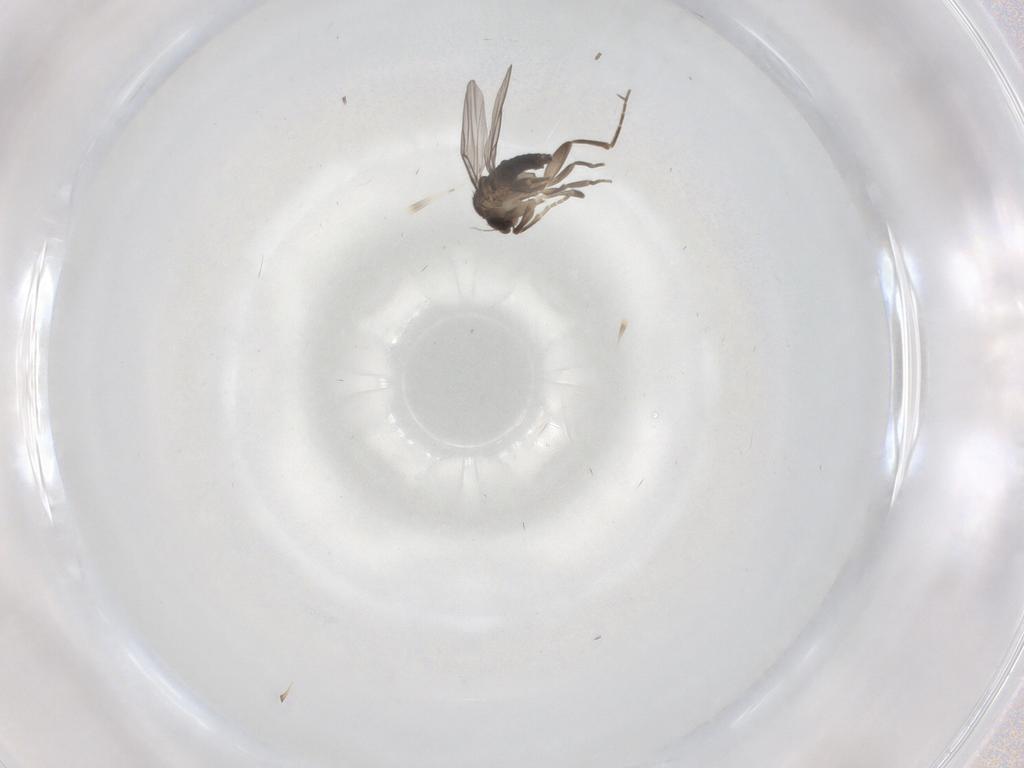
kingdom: Animalia
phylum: Arthropoda
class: Insecta
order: Diptera
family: Phoridae
